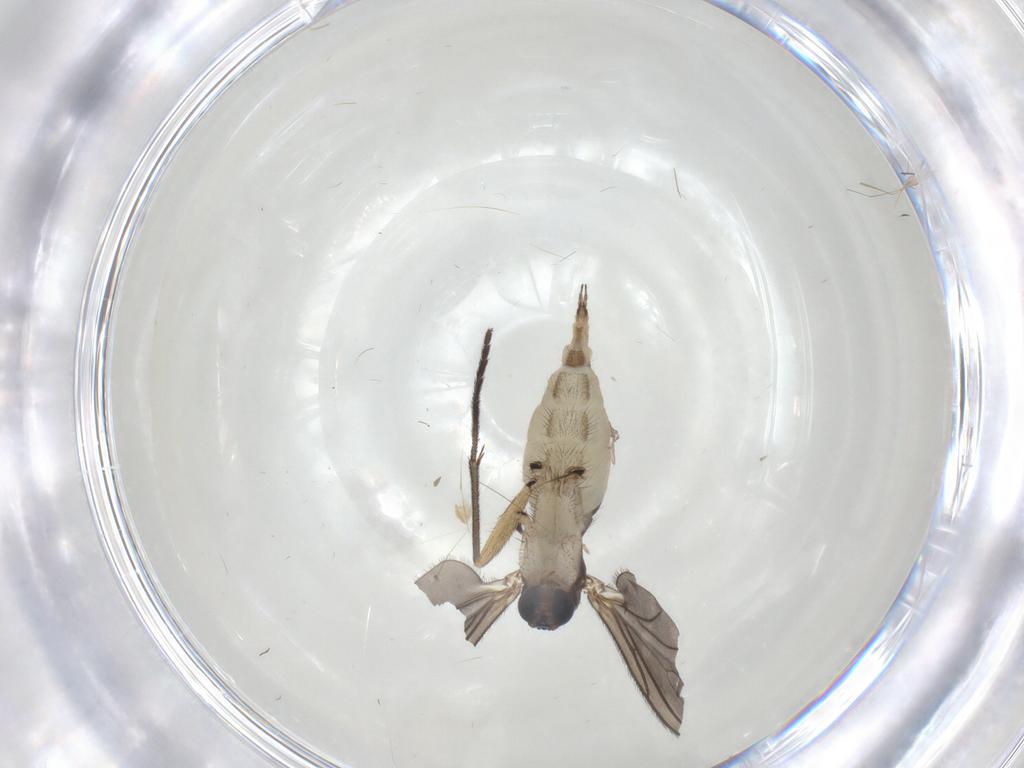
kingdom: Animalia
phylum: Arthropoda
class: Insecta
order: Diptera
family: Sciaridae
